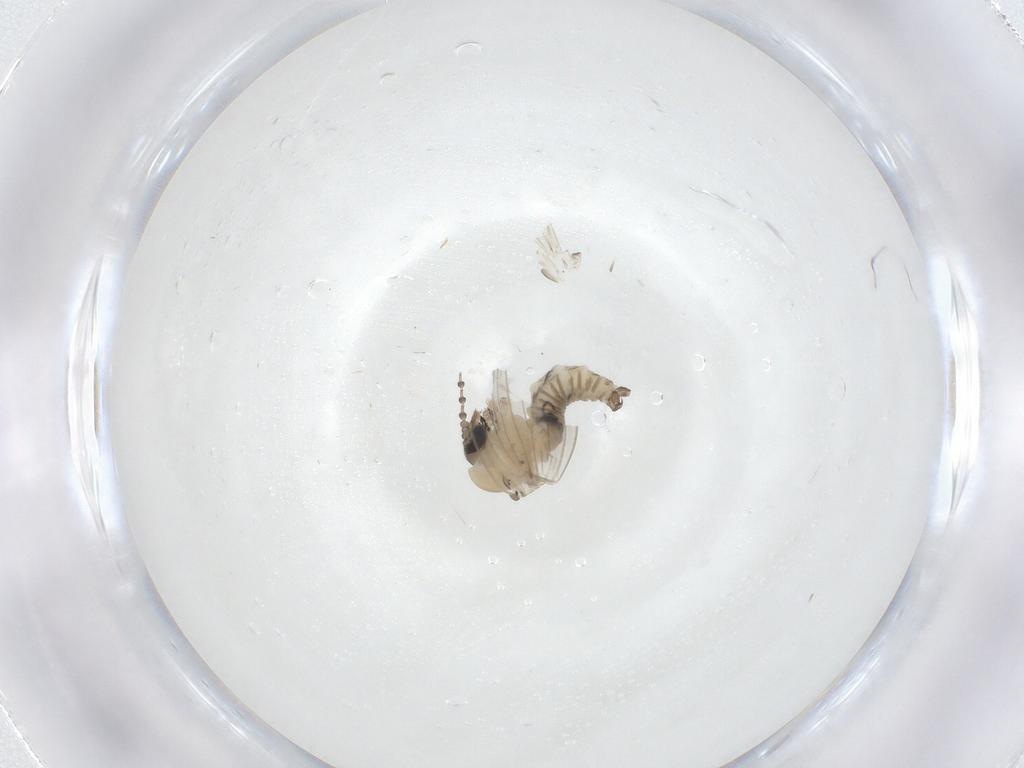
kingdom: Animalia
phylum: Arthropoda
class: Insecta
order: Diptera
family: Psychodidae
